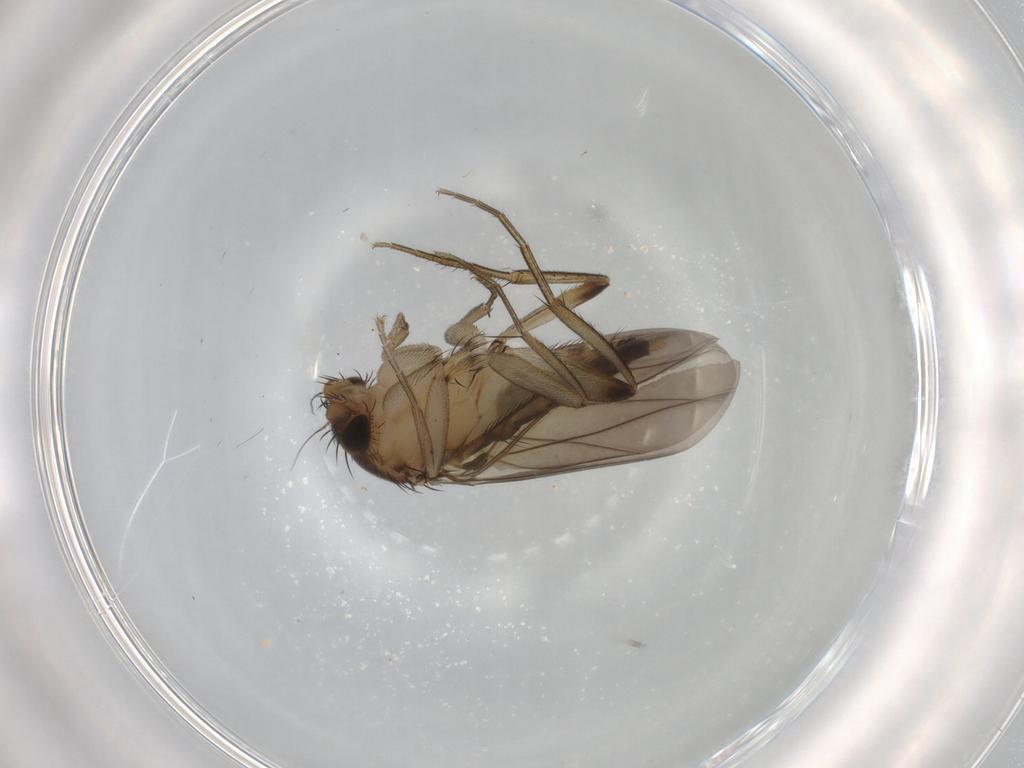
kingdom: Animalia
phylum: Arthropoda
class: Insecta
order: Diptera
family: Phoridae
